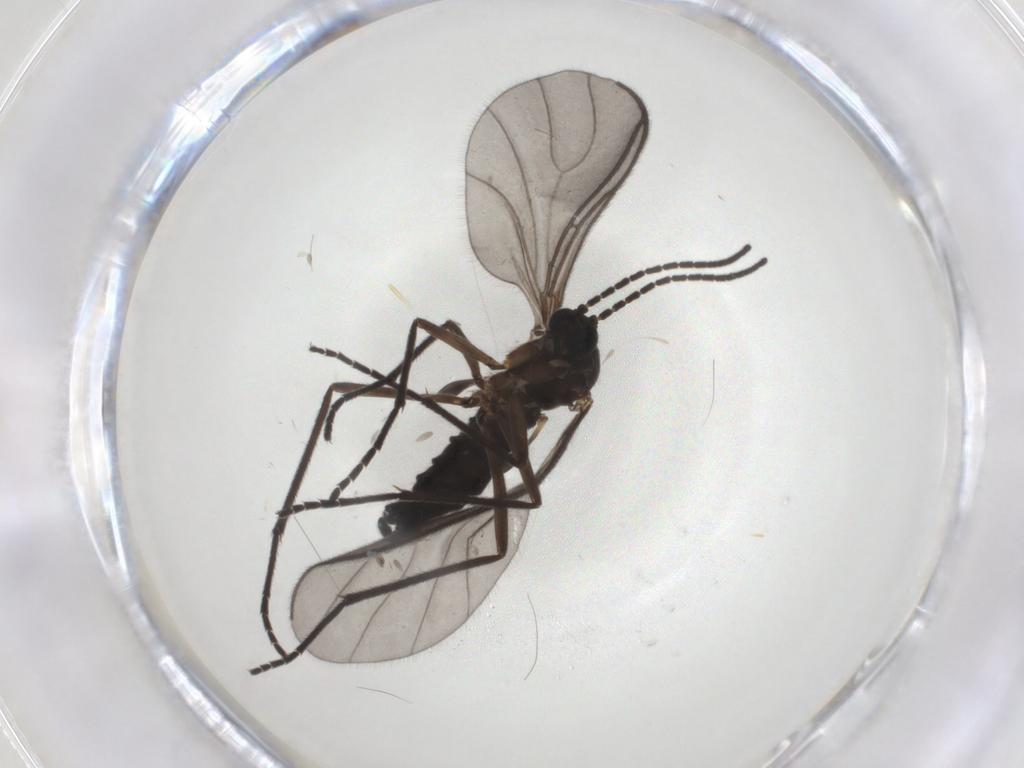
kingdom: Animalia
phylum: Arthropoda
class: Insecta
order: Diptera
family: Sciaridae
